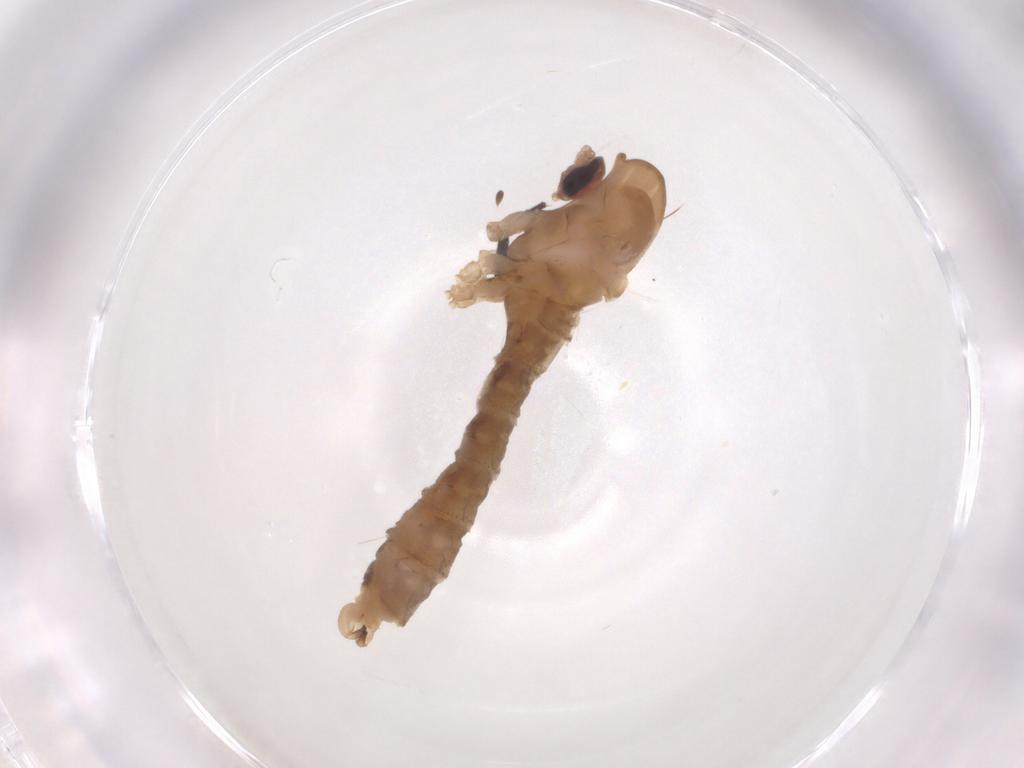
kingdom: Animalia
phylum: Arthropoda
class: Insecta
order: Diptera
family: Cecidomyiidae
